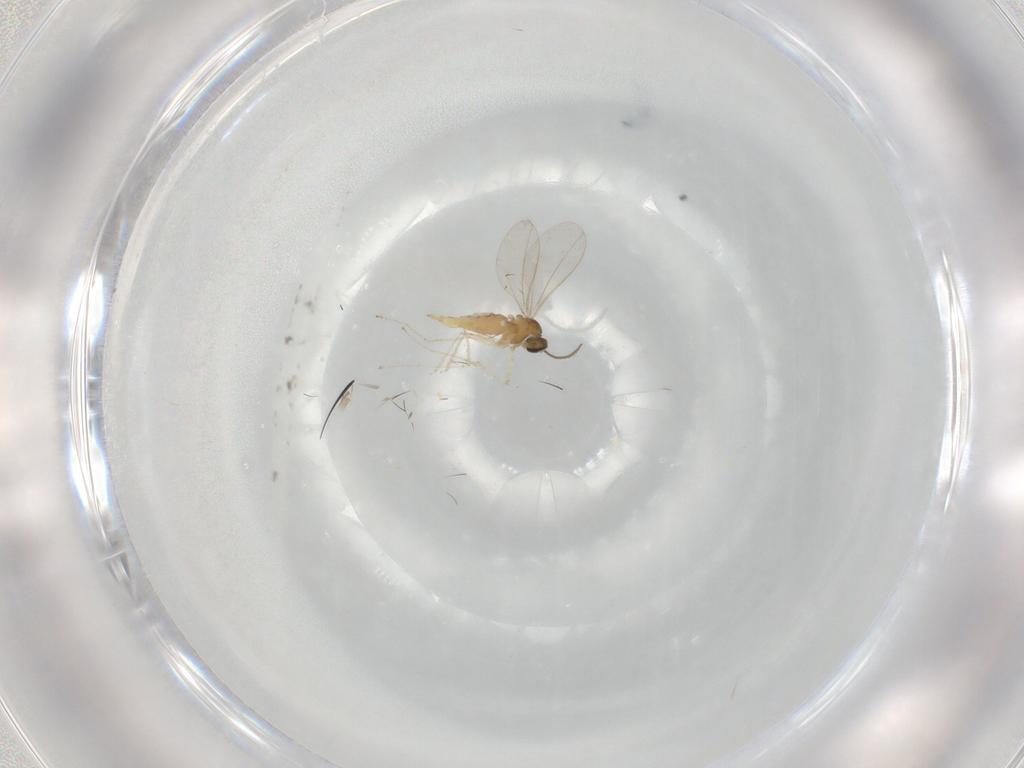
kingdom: Animalia
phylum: Arthropoda
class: Insecta
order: Diptera
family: Cecidomyiidae
